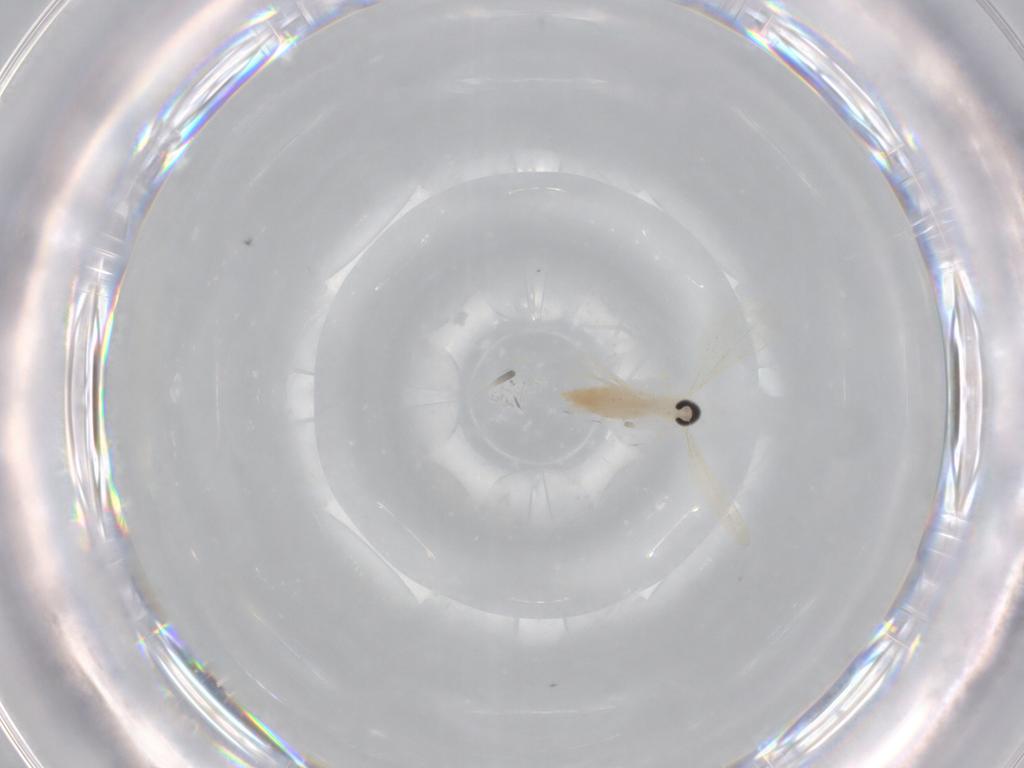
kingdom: Animalia
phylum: Arthropoda
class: Insecta
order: Diptera
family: Cecidomyiidae
